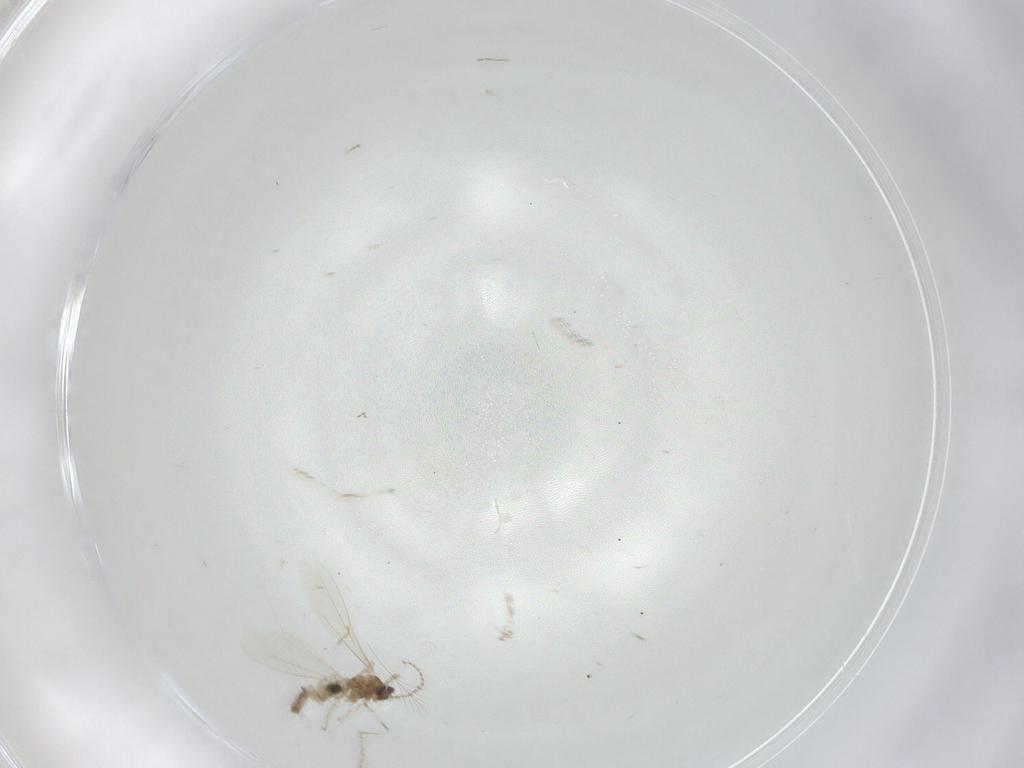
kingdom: Animalia
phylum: Arthropoda
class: Insecta
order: Diptera
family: Cecidomyiidae
